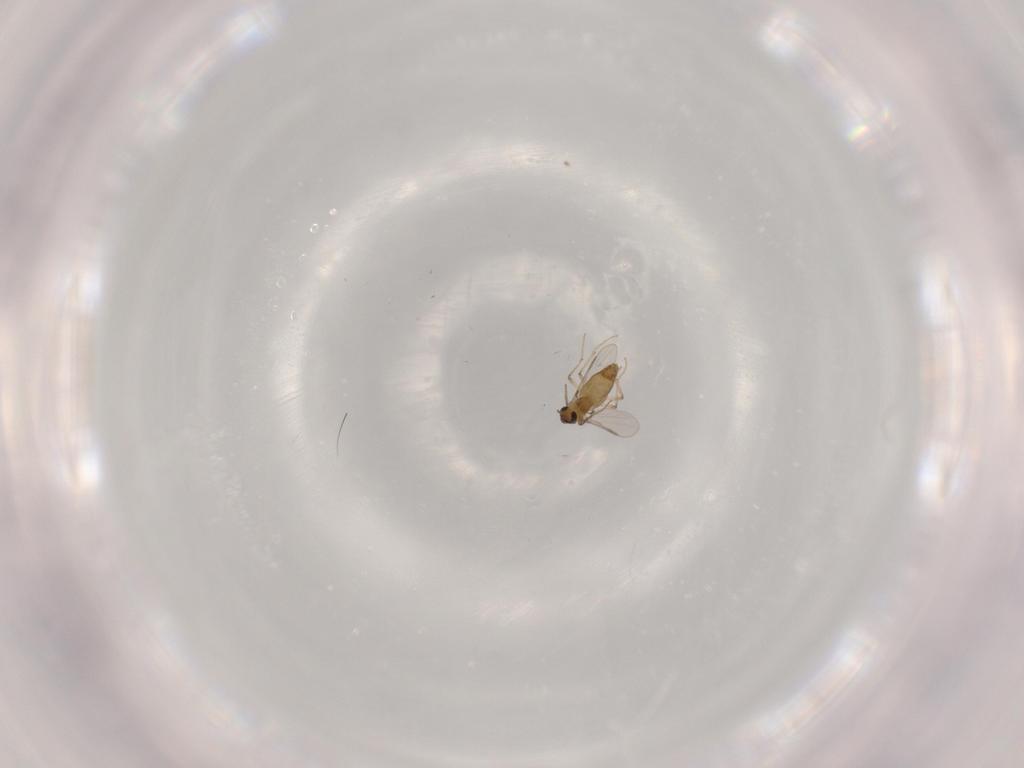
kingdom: Animalia
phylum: Arthropoda
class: Insecta
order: Diptera
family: Chironomidae
